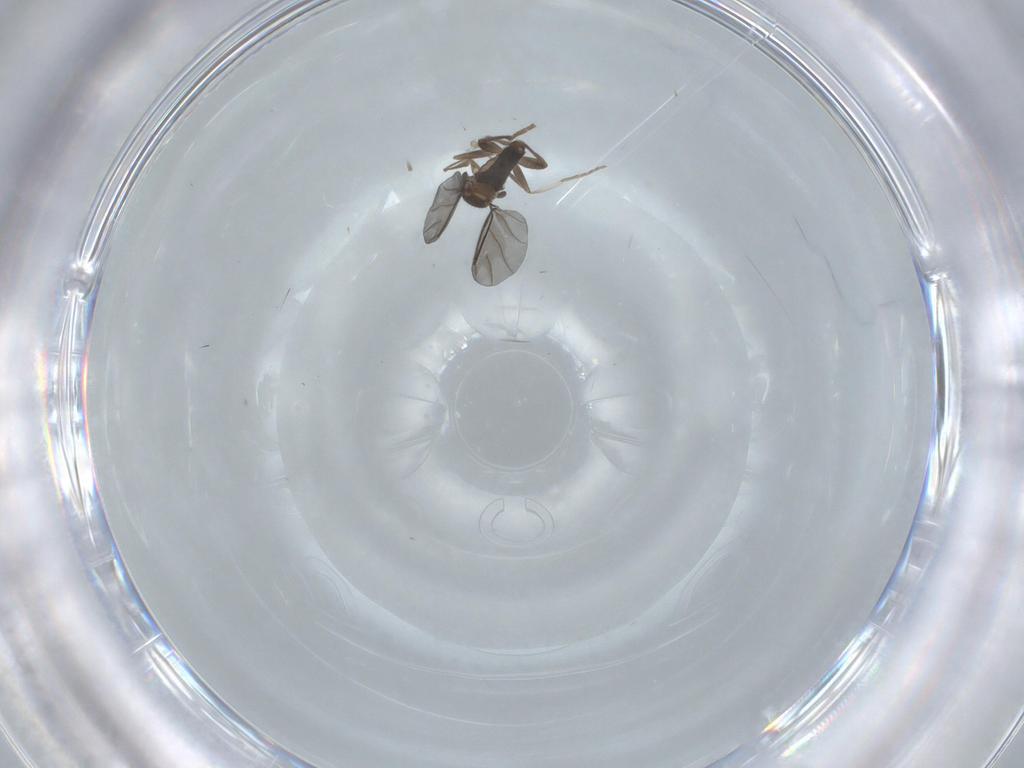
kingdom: Animalia
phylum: Arthropoda
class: Insecta
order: Diptera
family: Phoridae
